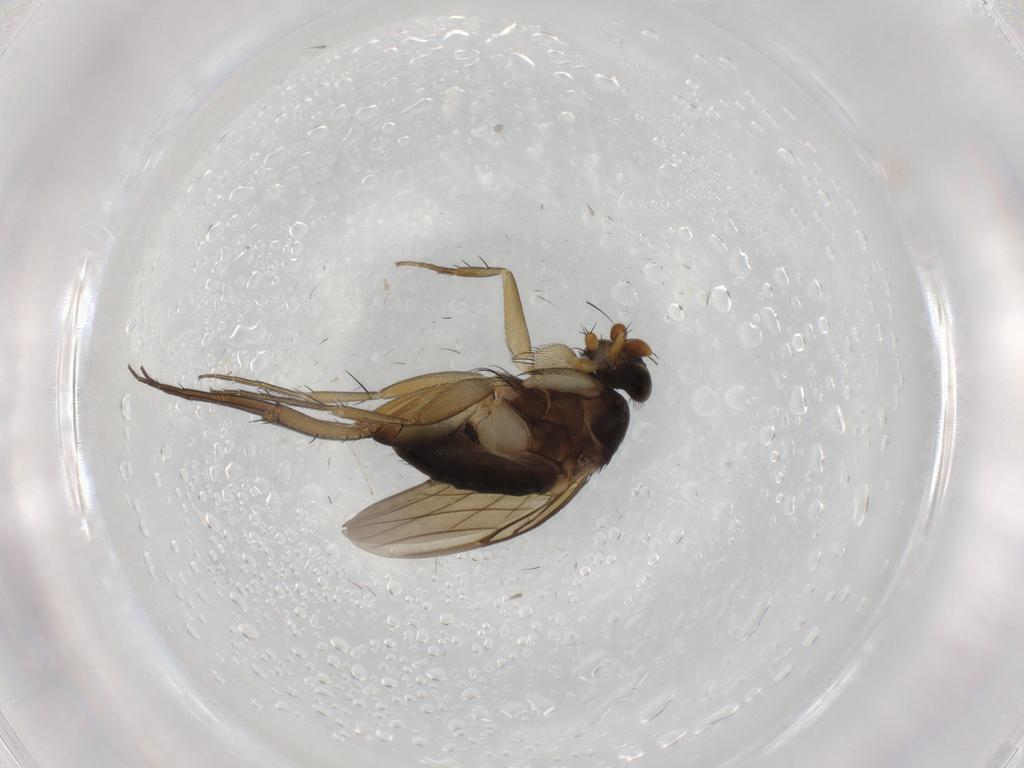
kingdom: Animalia
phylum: Arthropoda
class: Insecta
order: Diptera
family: Phoridae
